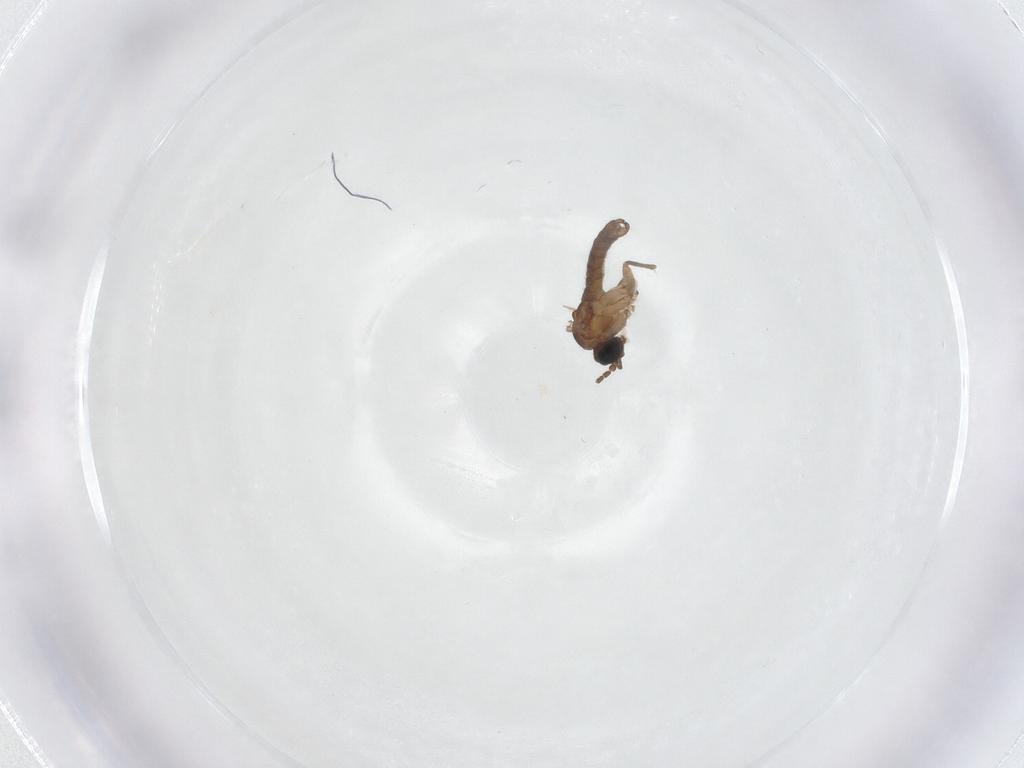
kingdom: Animalia
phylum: Arthropoda
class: Insecta
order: Diptera
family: Sciaridae
